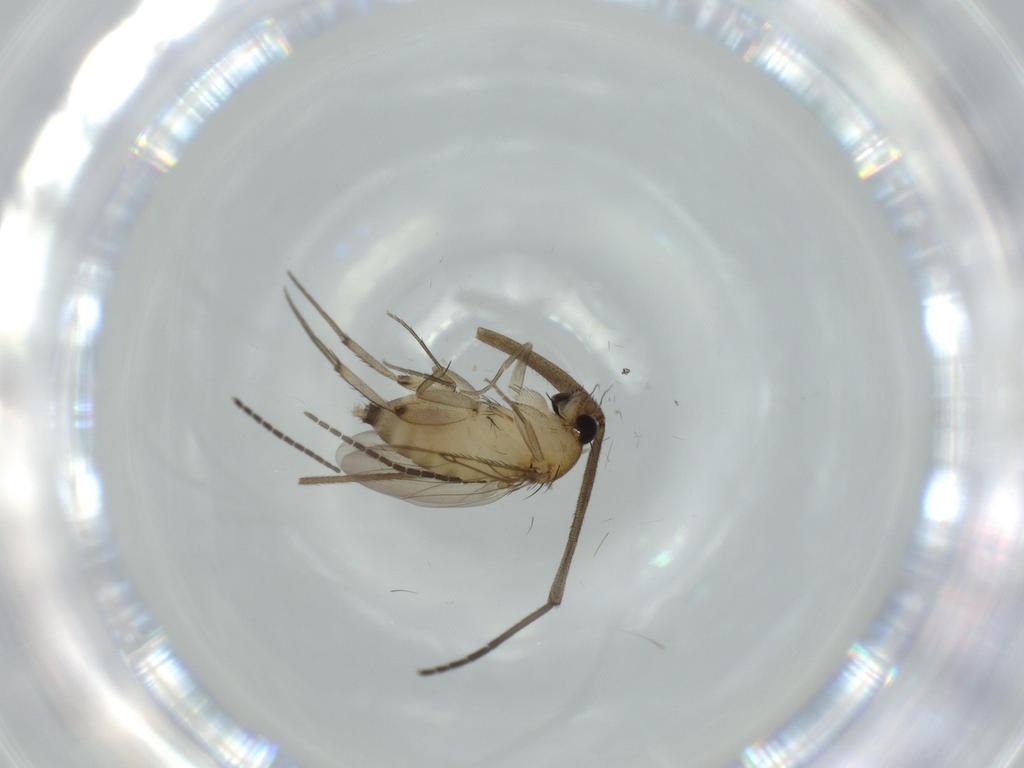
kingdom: Animalia
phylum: Arthropoda
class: Insecta
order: Diptera
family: Phoridae
